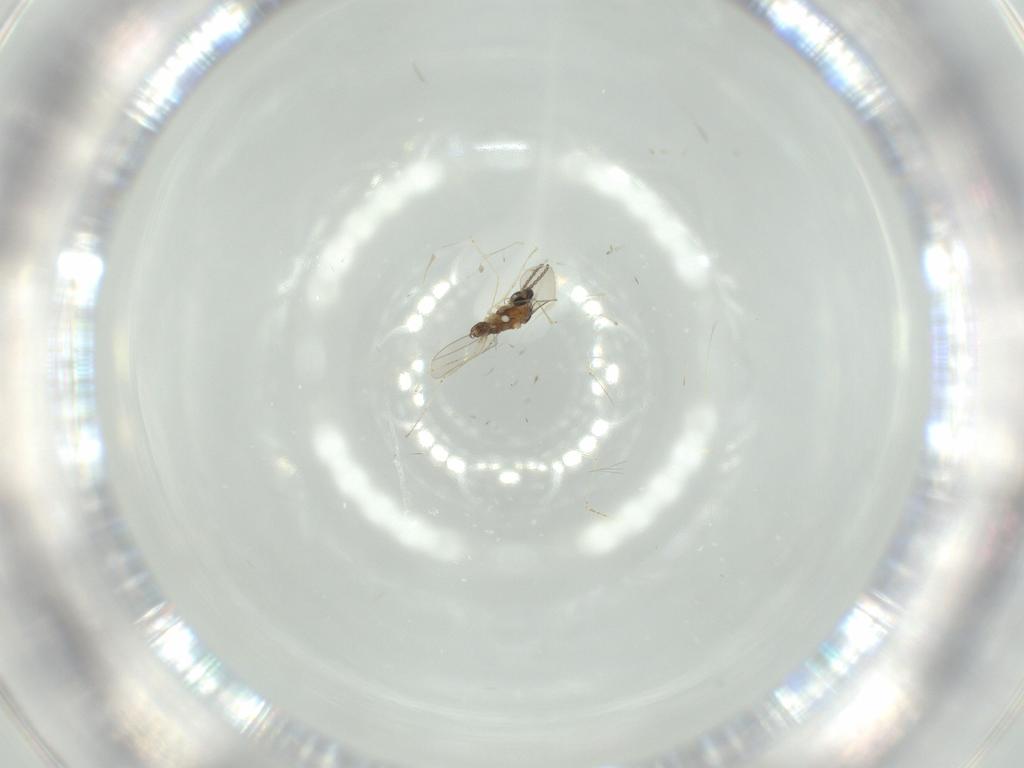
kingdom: Animalia
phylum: Arthropoda
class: Insecta
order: Diptera
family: Cecidomyiidae
